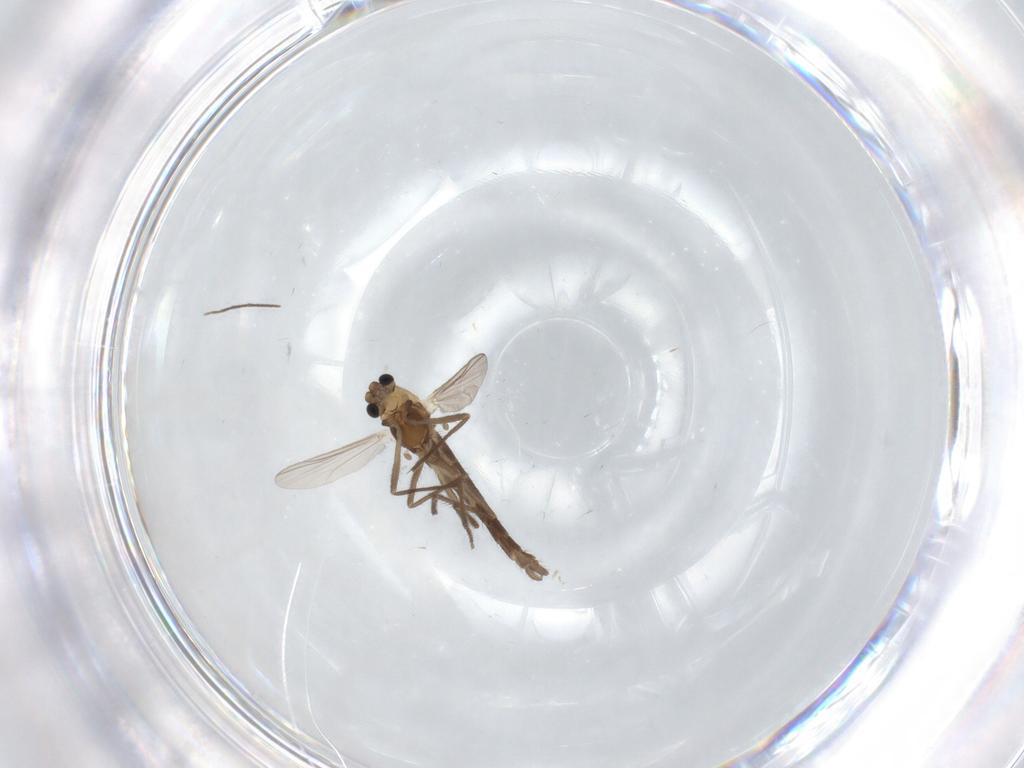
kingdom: Animalia
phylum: Arthropoda
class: Insecta
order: Diptera
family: Chironomidae
